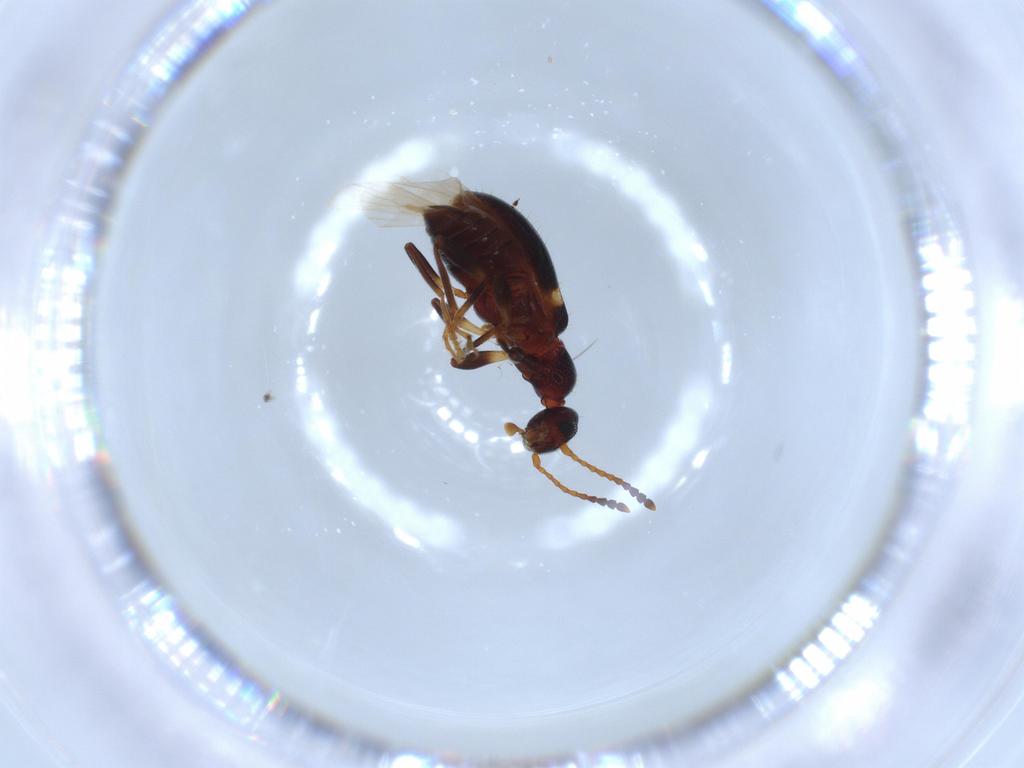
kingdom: Animalia
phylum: Arthropoda
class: Insecta
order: Coleoptera
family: Anthicidae
